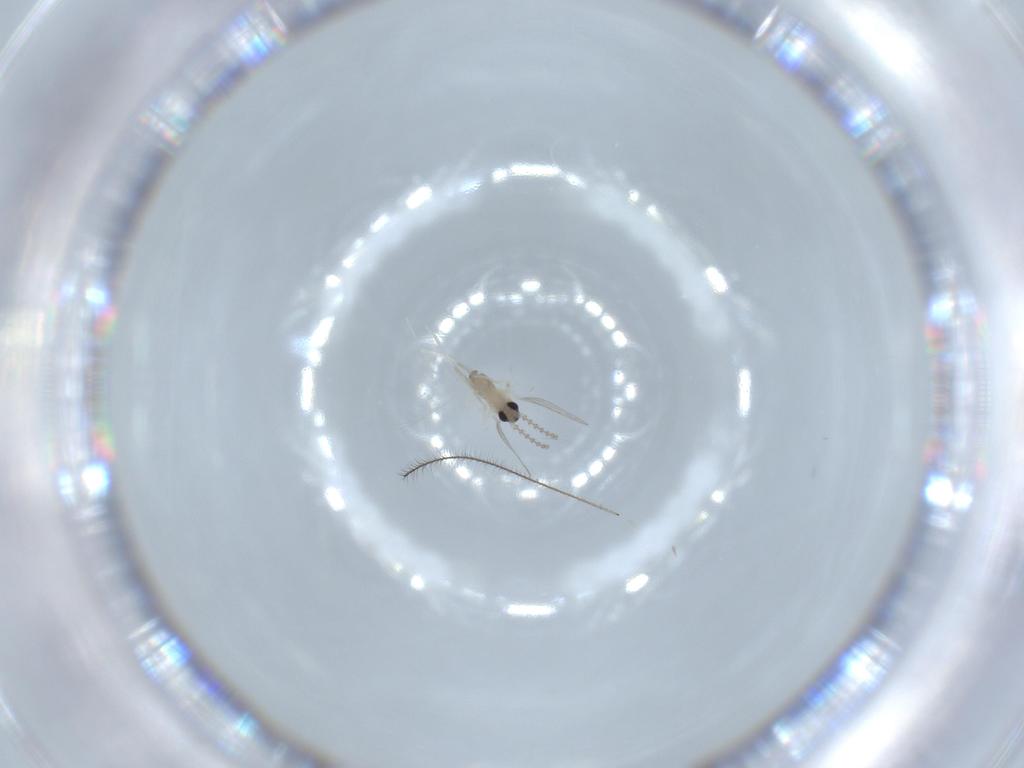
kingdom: Animalia
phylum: Arthropoda
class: Insecta
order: Diptera
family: Cecidomyiidae
